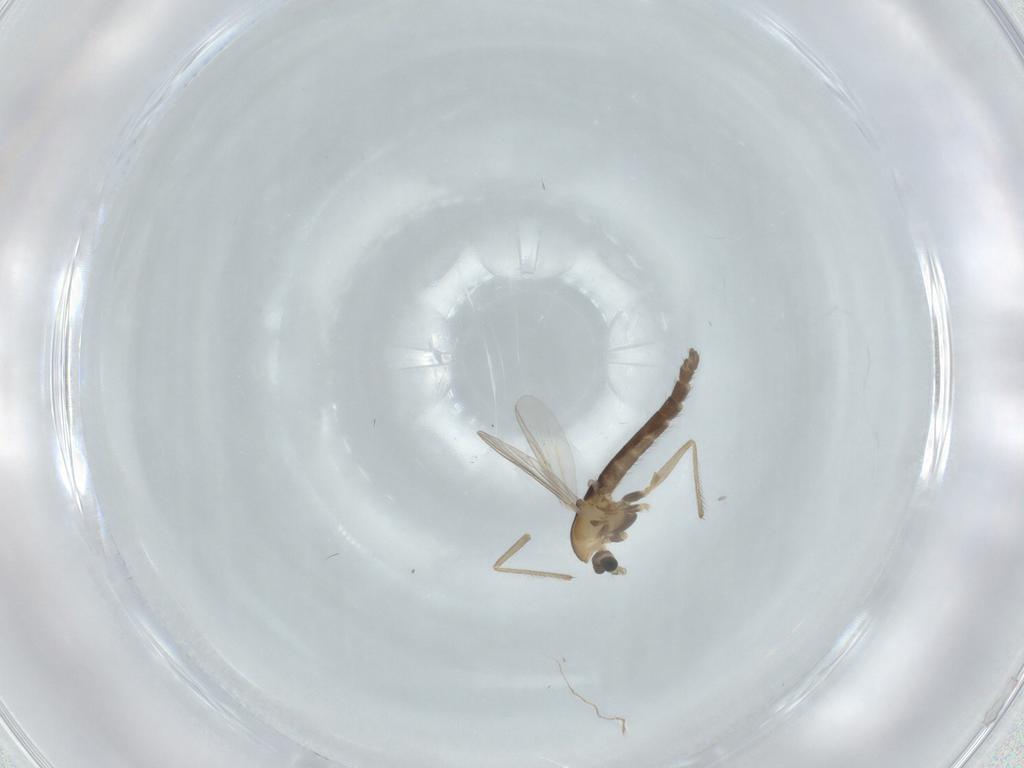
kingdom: Animalia
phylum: Arthropoda
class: Insecta
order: Diptera
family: Chironomidae
